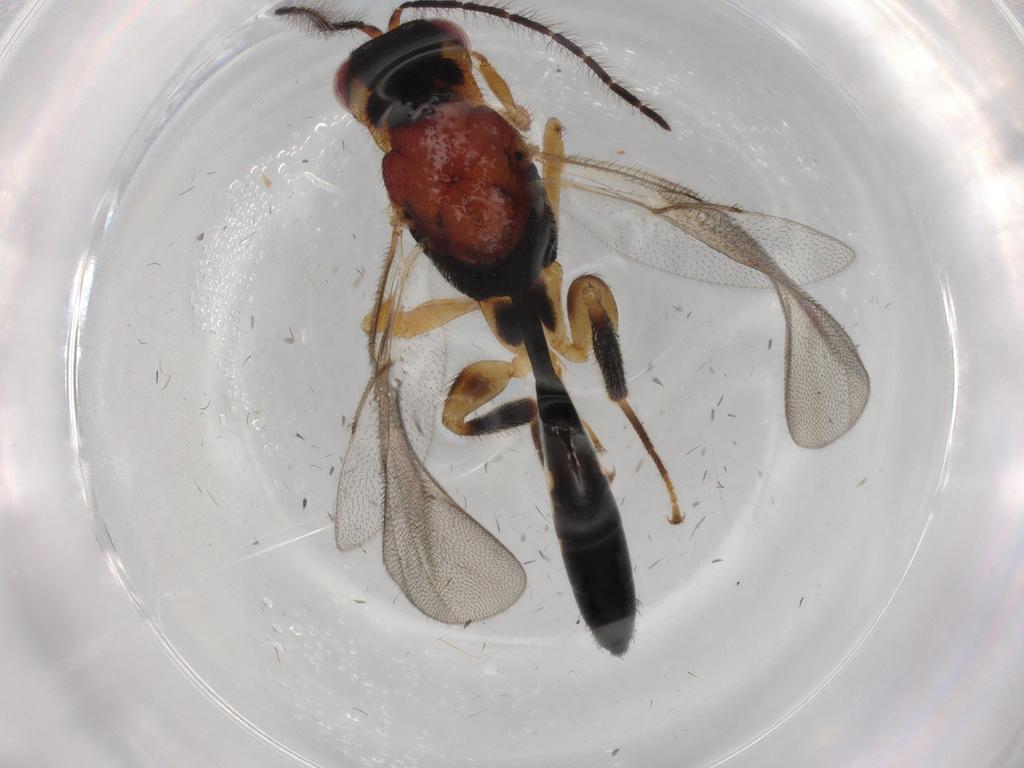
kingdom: Animalia
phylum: Arthropoda
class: Insecta
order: Hymenoptera
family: Eurytomidae
